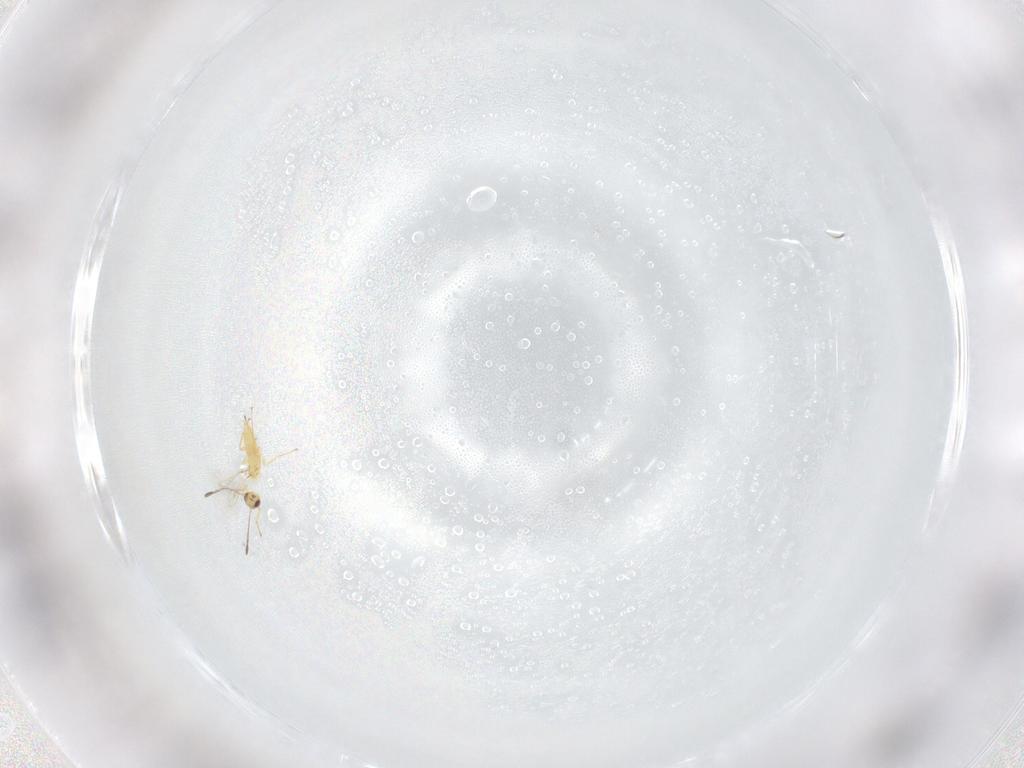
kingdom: Animalia
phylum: Arthropoda
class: Insecta
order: Hymenoptera
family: Mymaridae
